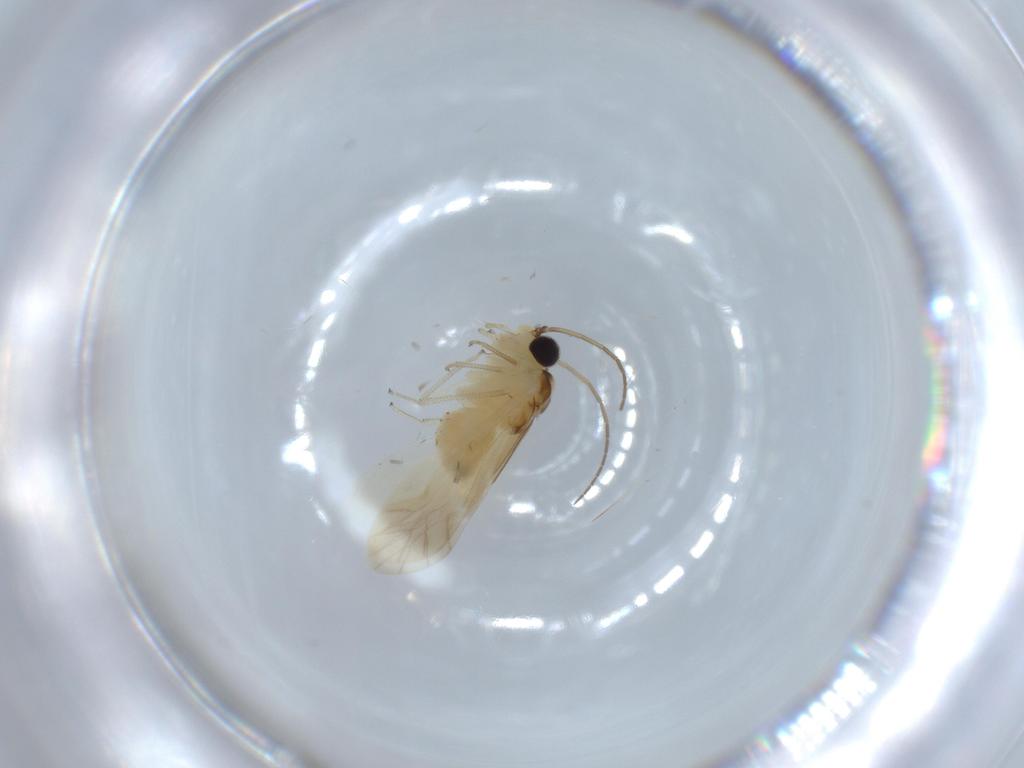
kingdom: Animalia
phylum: Arthropoda
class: Insecta
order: Psocodea
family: Caeciliusidae
